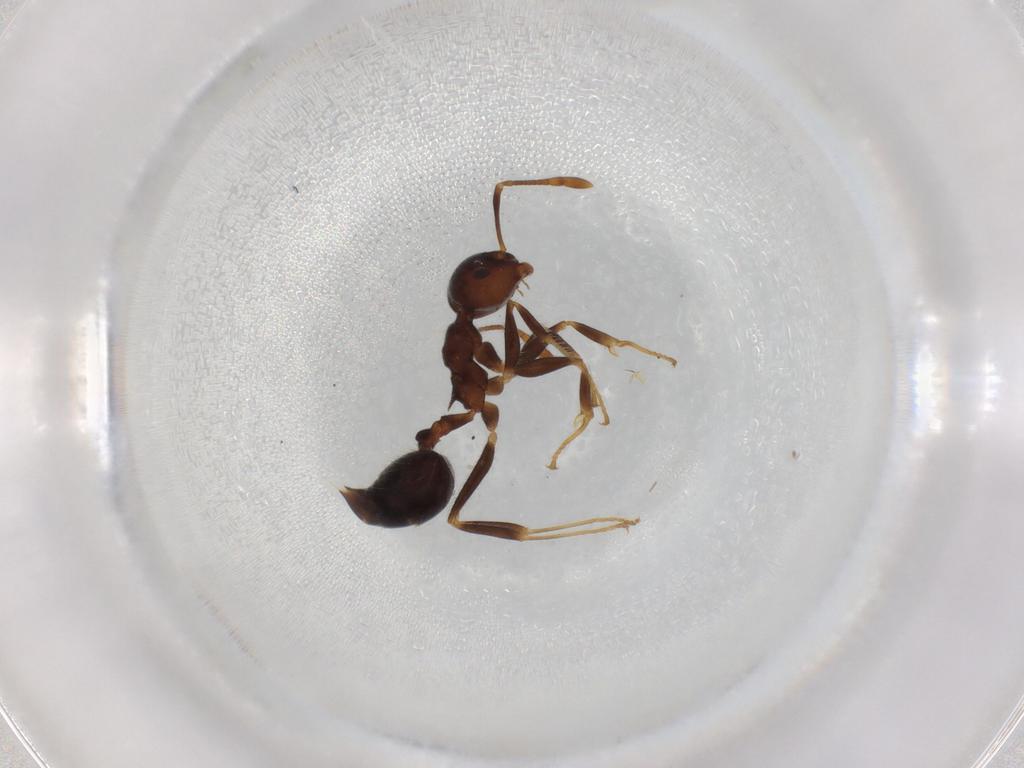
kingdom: Animalia
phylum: Arthropoda
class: Insecta
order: Hymenoptera
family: Formicidae
